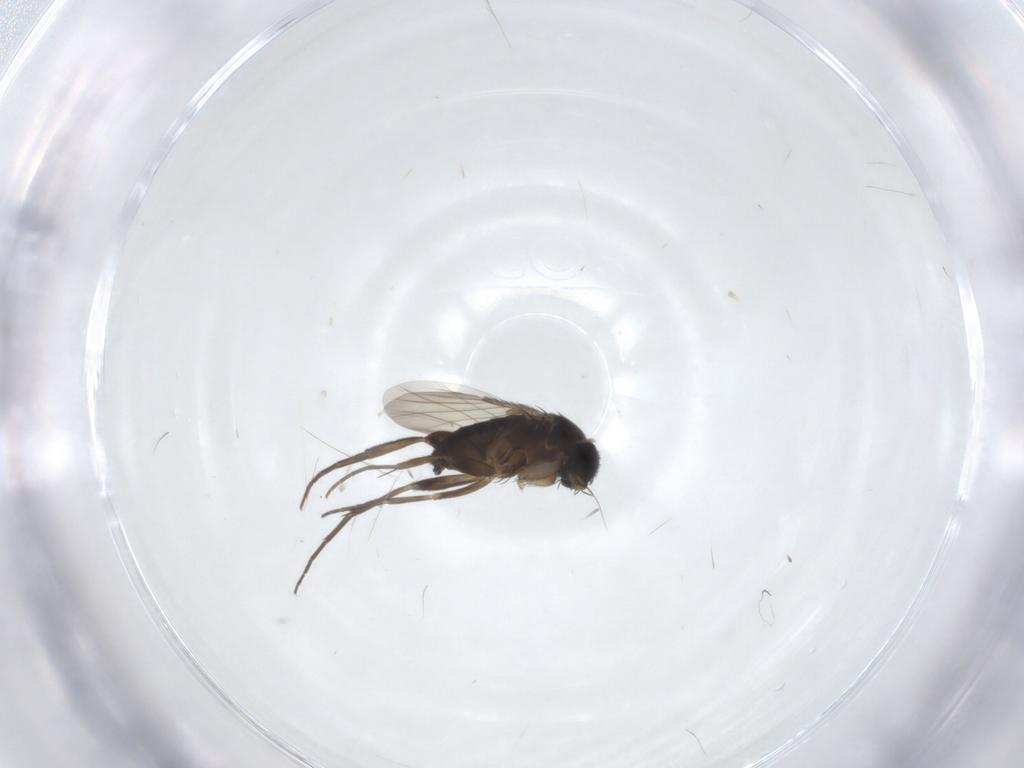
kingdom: Animalia
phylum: Arthropoda
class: Insecta
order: Diptera
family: Phoridae
